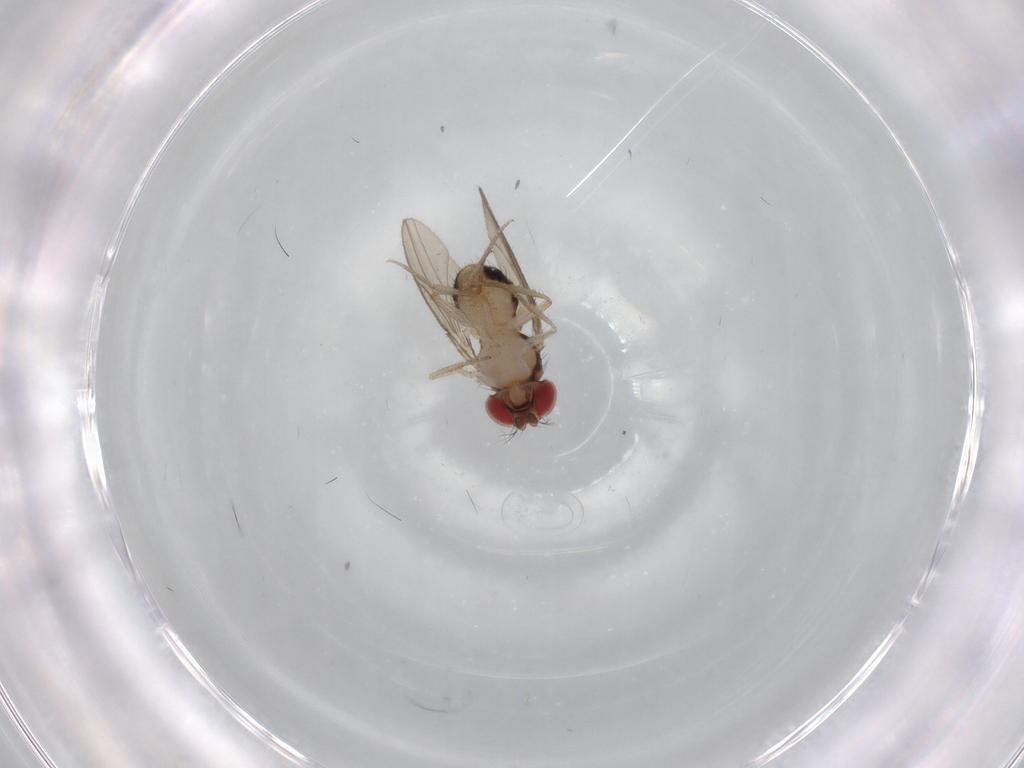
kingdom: Animalia
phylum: Arthropoda
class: Insecta
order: Diptera
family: Drosophilidae
